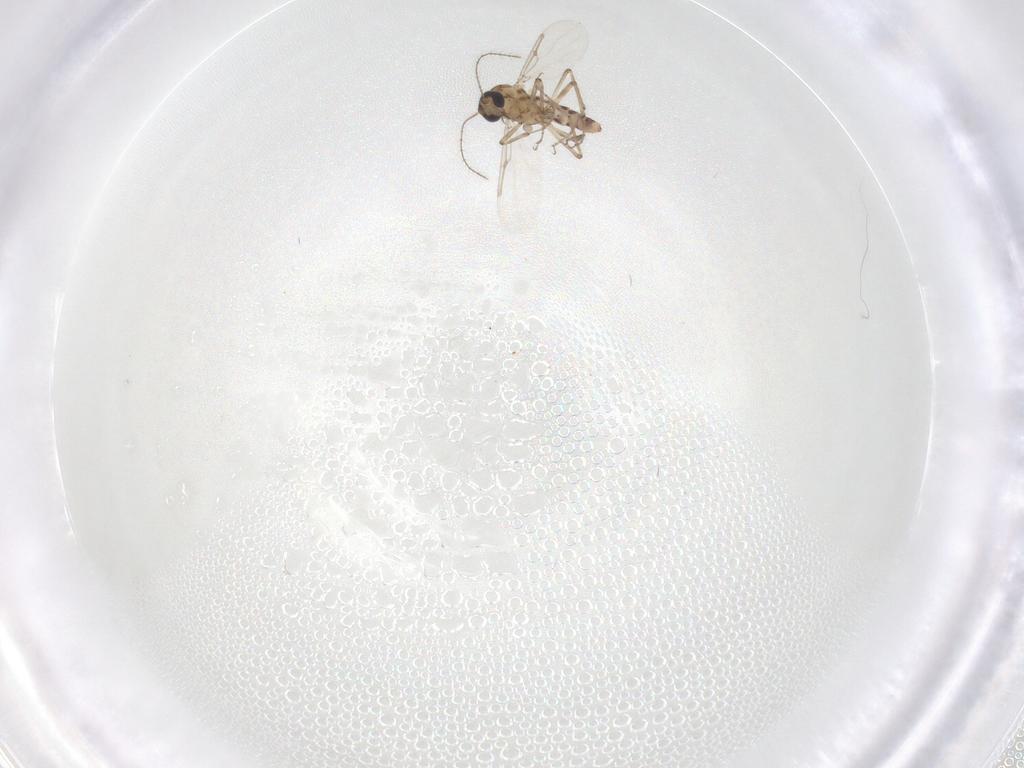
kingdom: Animalia
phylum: Arthropoda
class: Insecta
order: Diptera
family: Ceratopogonidae
